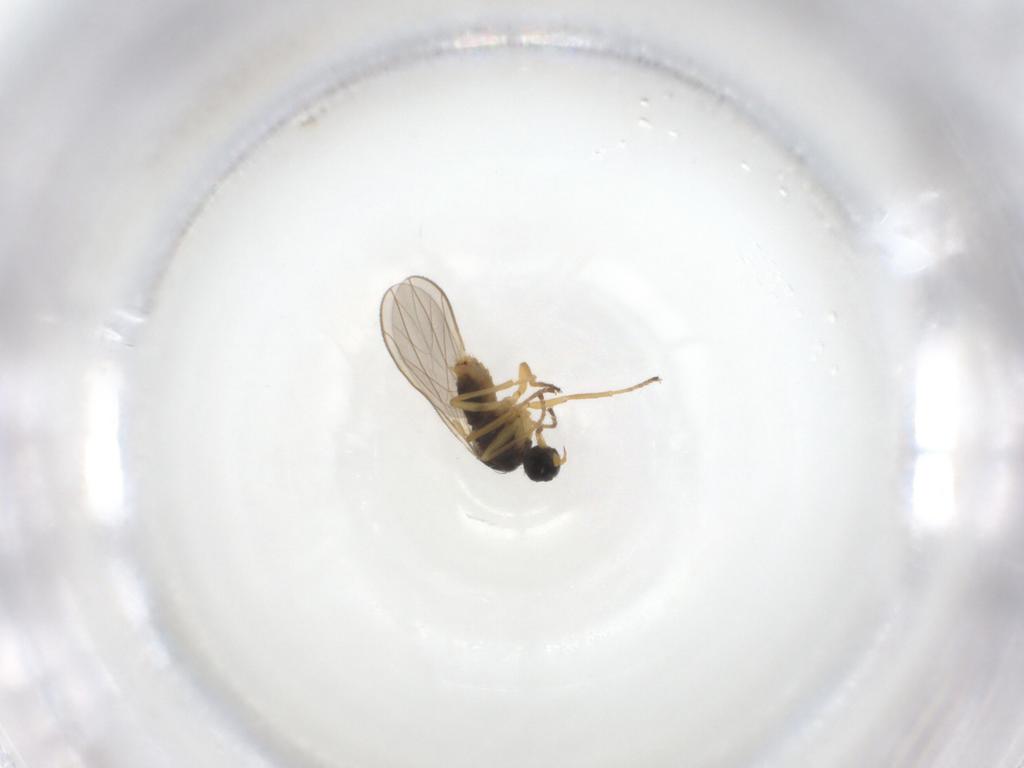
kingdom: Animalia
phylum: Arthropoda
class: Insecta
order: Diptera
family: Hybotidae
